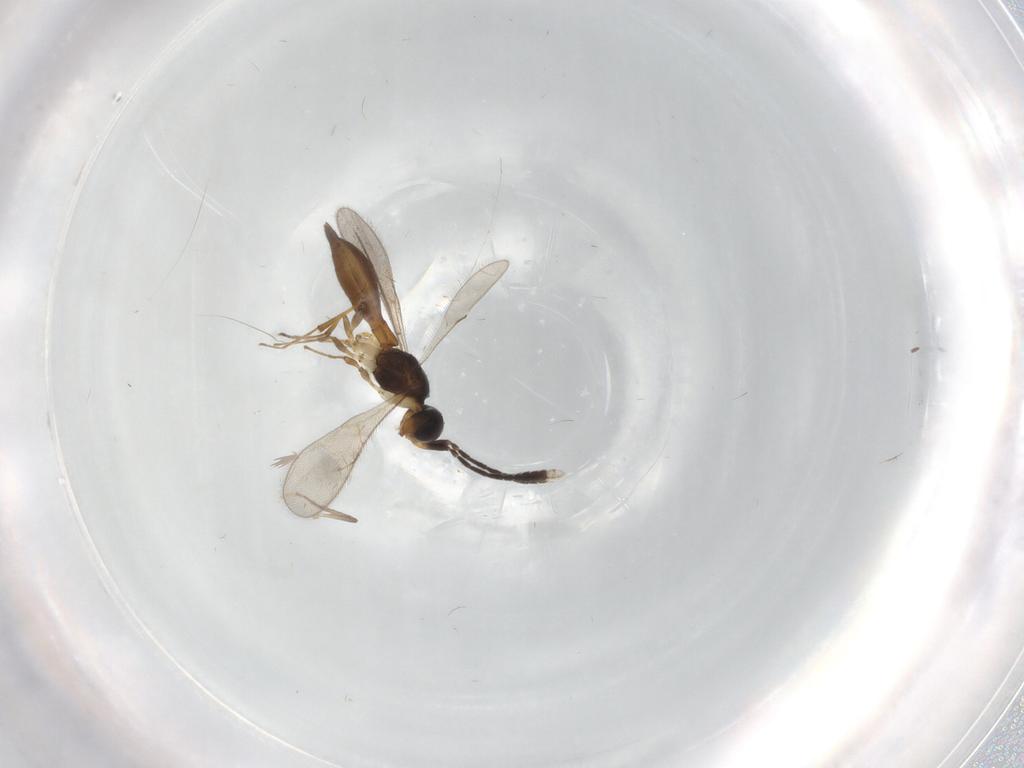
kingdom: Animalia
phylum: Arthropoda
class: Insecta
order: Hymenoptera
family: Scelionidae
